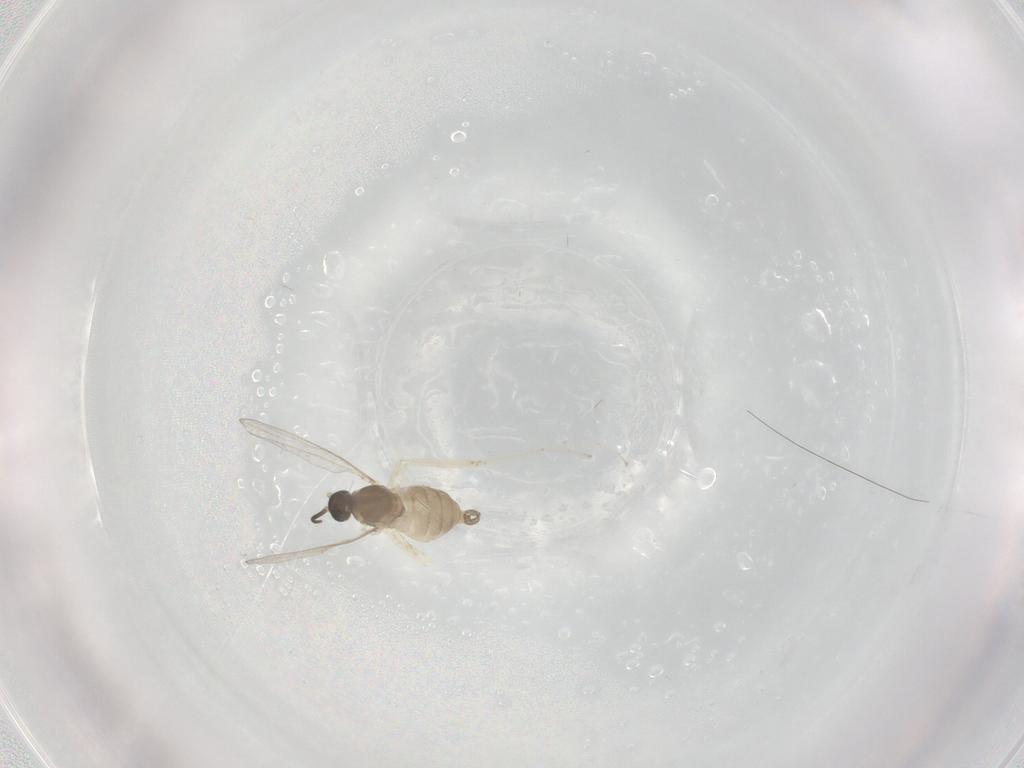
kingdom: Animalia
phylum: Arthropoda
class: Insecta
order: Diptera
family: Cecidomyiidae
